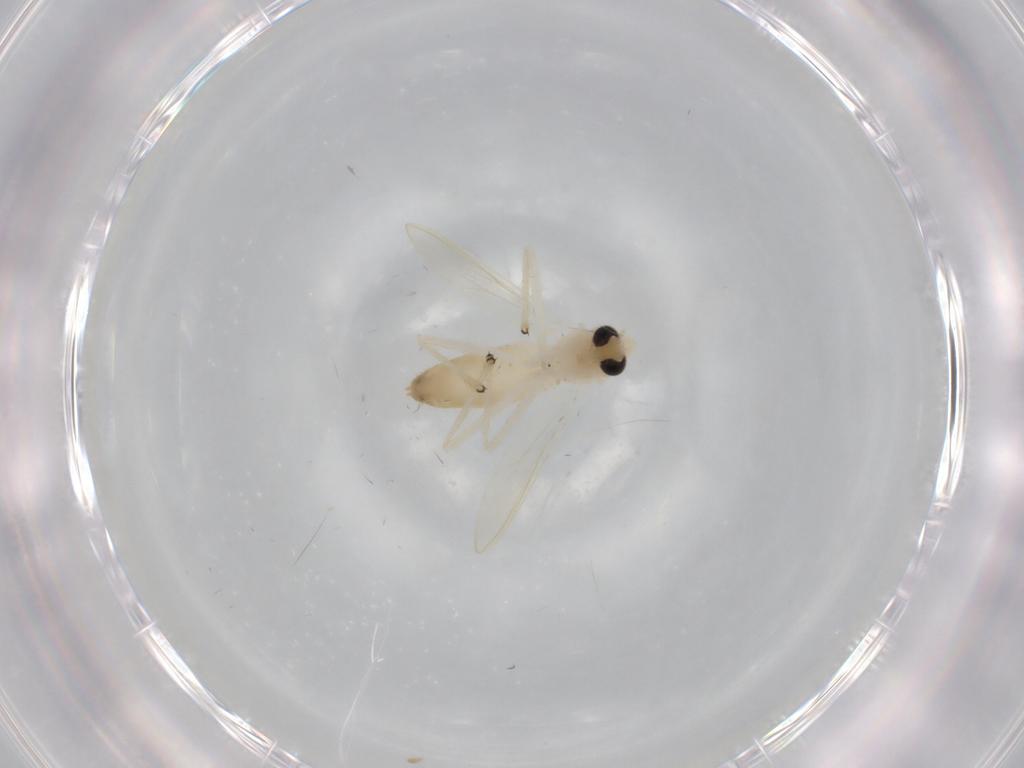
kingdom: Animalia
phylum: Arthropoda
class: Insecta
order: Diptera
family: Chironomidae
